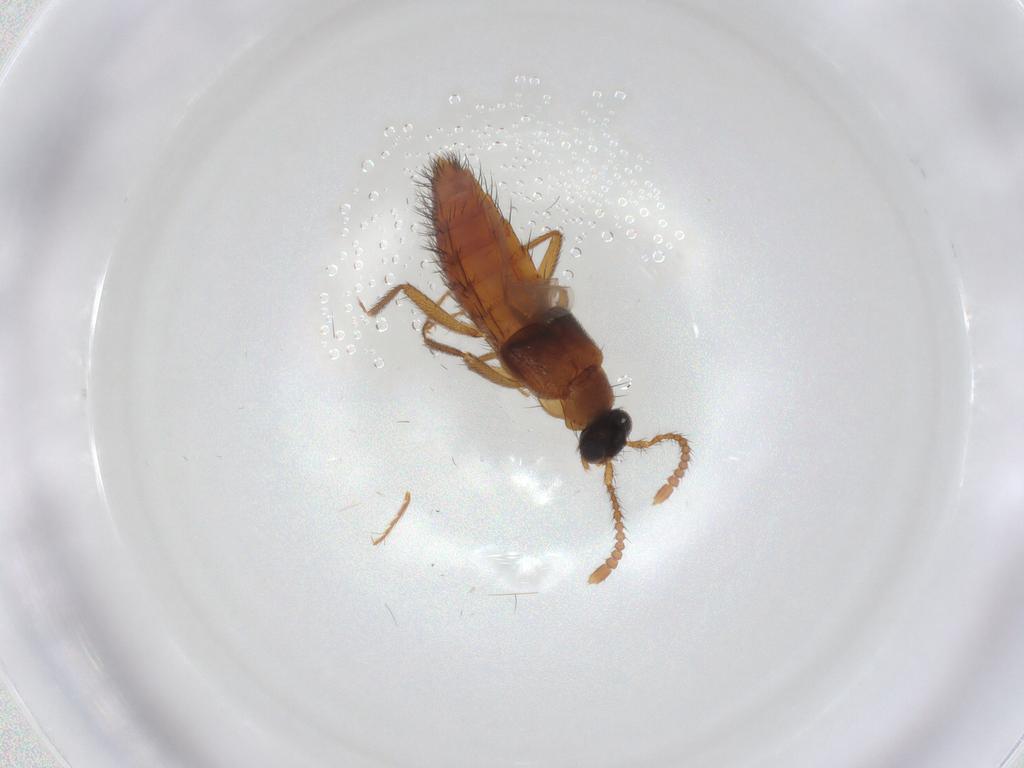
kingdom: Animalia
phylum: Arthropoda
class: Insecta
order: Coleoptera
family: Staphylinidae
